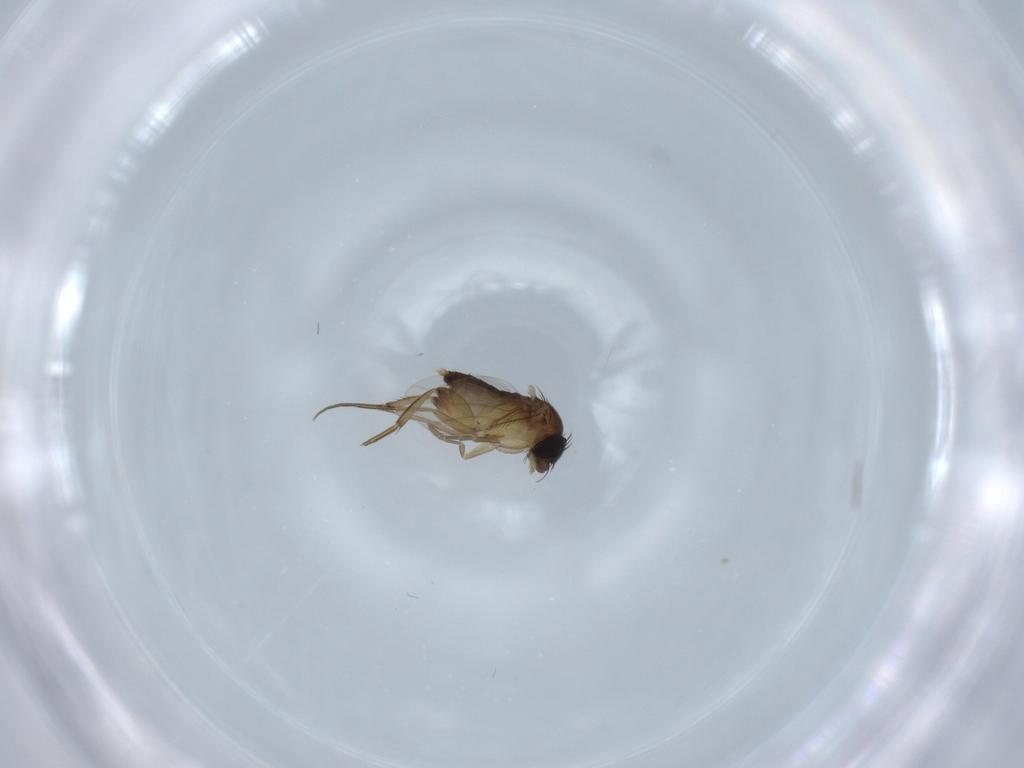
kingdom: Animalia
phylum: Arthropoda
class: Insecta
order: Diptera
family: Phoridae
